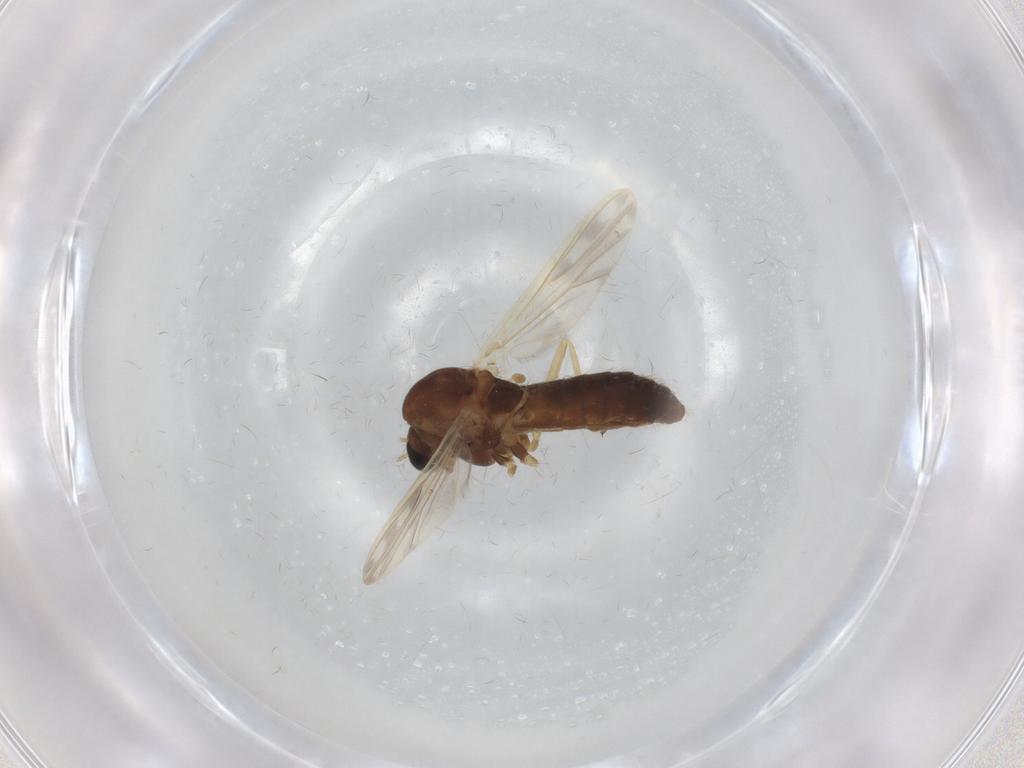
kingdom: Animalia
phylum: Arthropoda
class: Insecta
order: Diptera
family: Chironomidae
